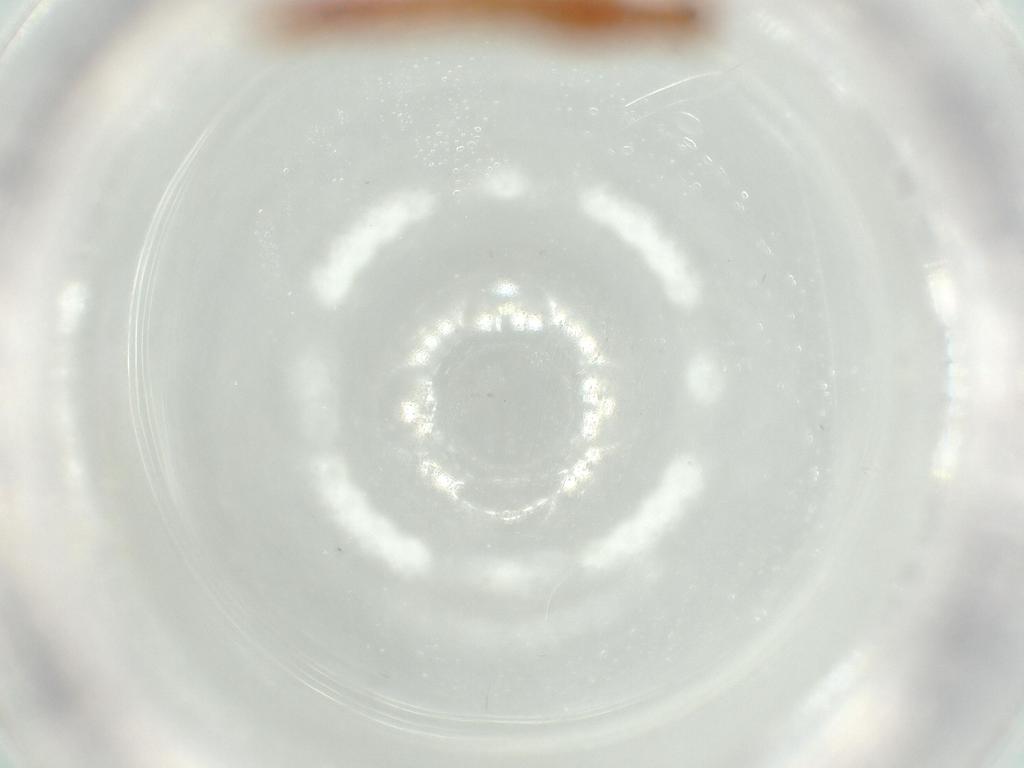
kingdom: Animalia
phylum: Arthropoda
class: Insecta
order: Coleoptera
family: Staphylinidae
